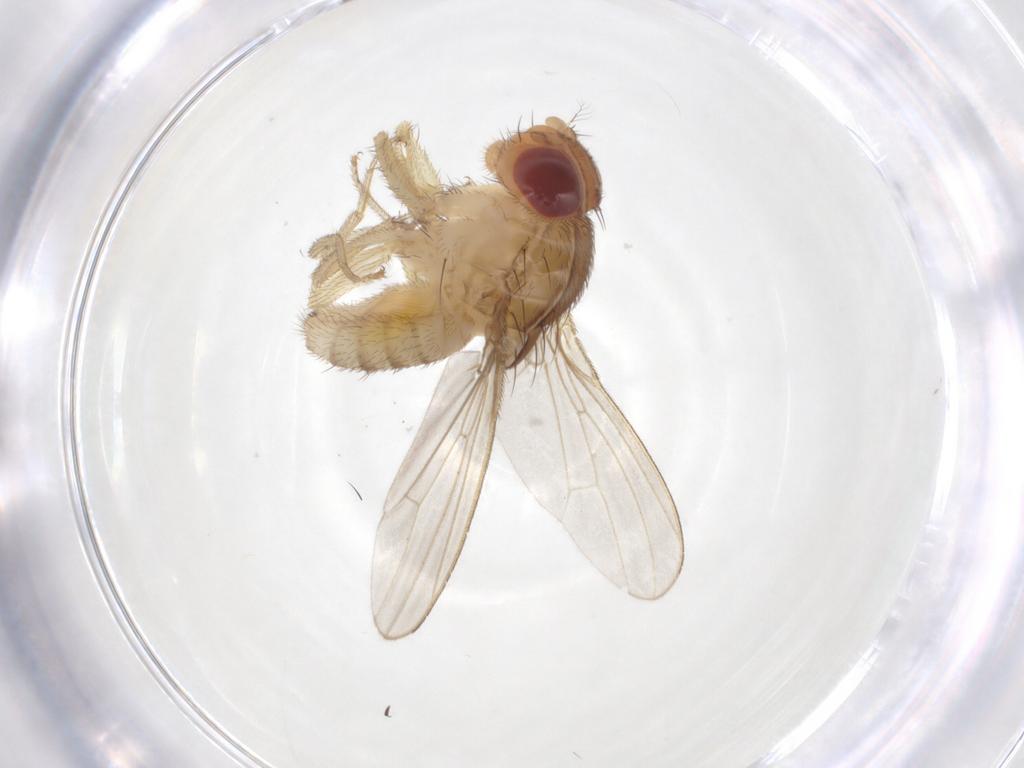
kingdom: Animalia
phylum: Arthropoda
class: Insecta
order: Diptera
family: Drosophilidae
